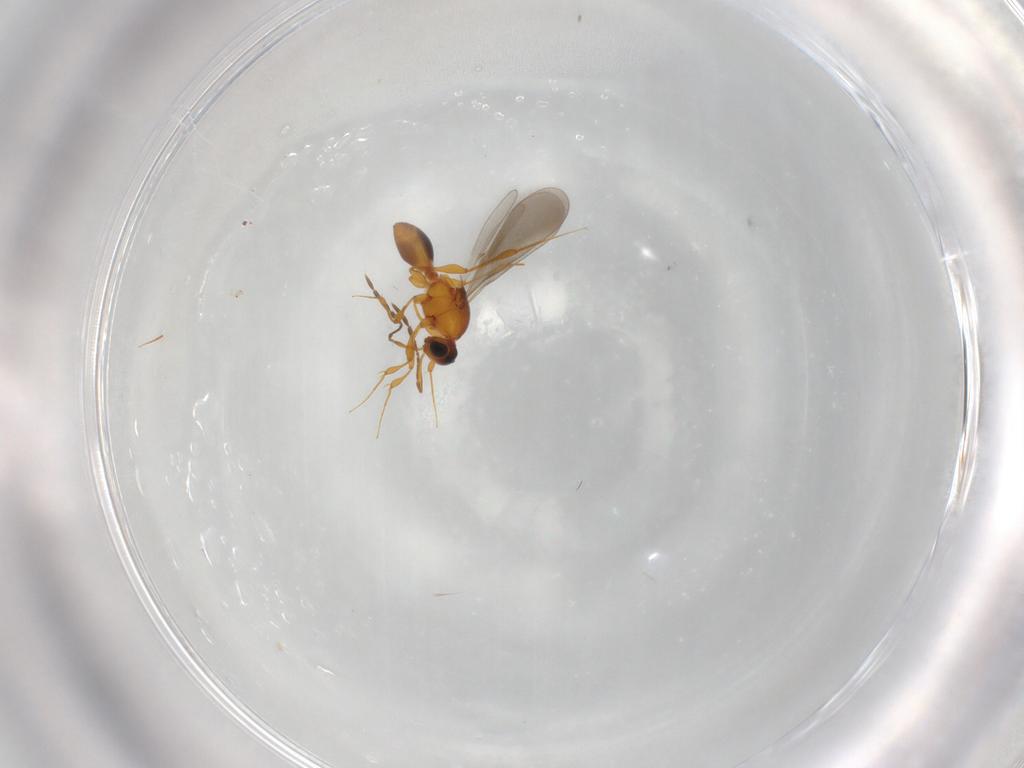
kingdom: Animalia
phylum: Arthropoda
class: Insecta
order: Hymenoptera
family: Platygastridae
